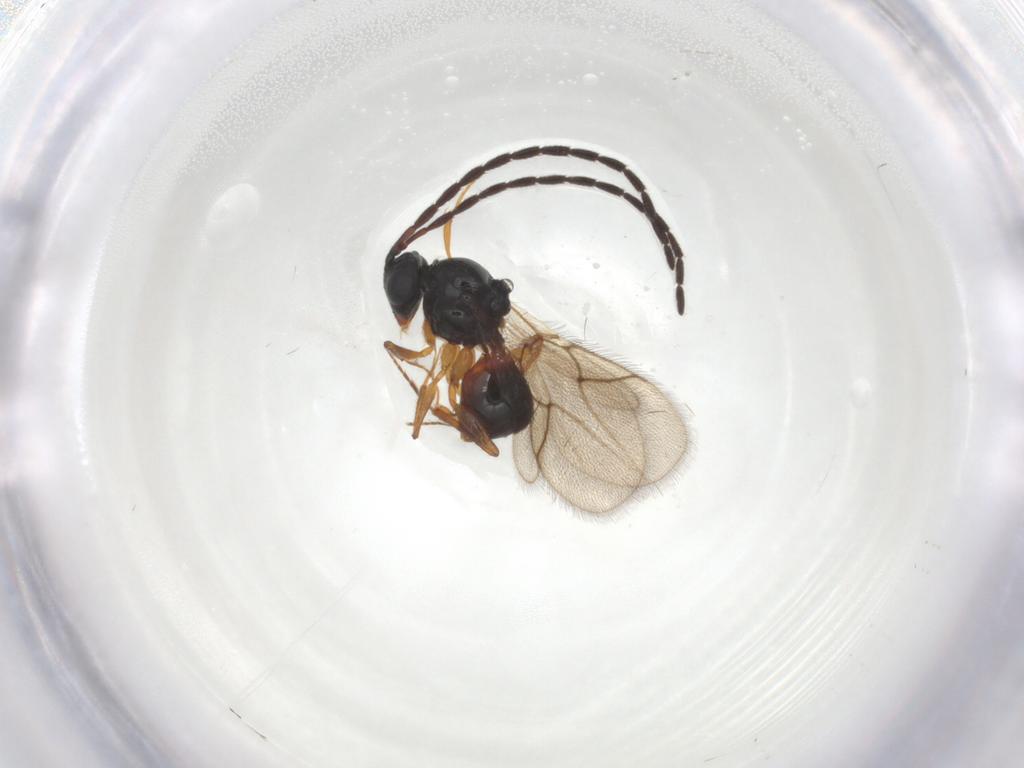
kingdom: Animalia
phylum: Arthropoda
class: Insecta
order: Hymenoptera
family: Figitidae
